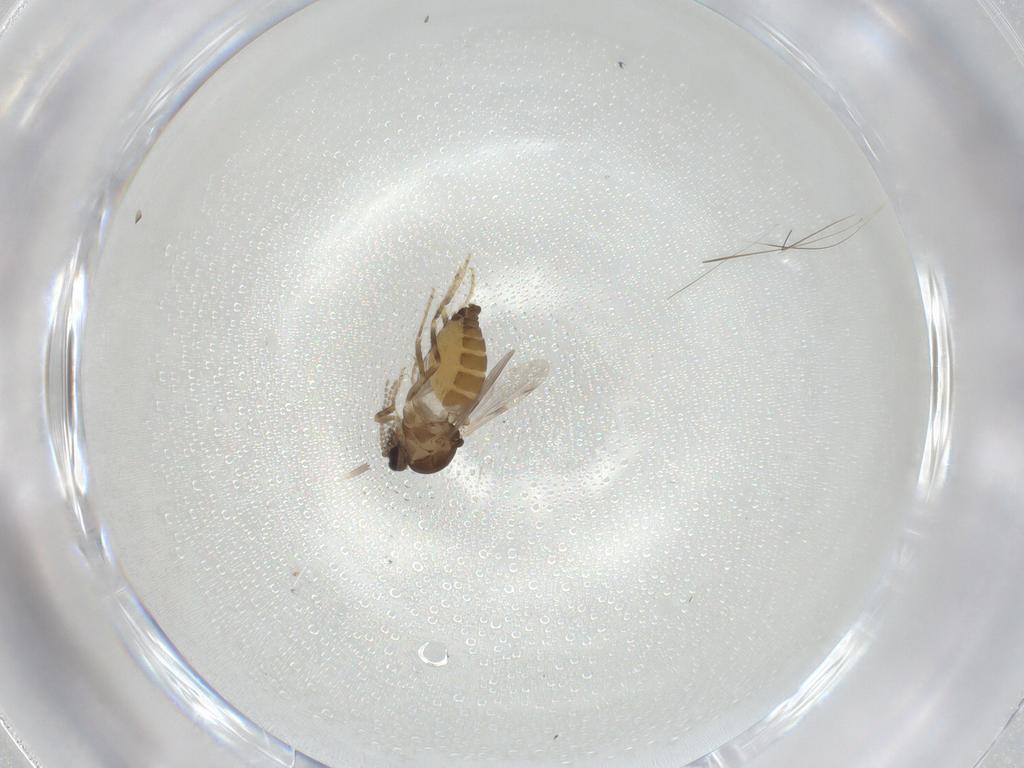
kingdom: Animalia
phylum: Arthropoda
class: Insecta
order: Diptera
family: Ceratopogonidae
